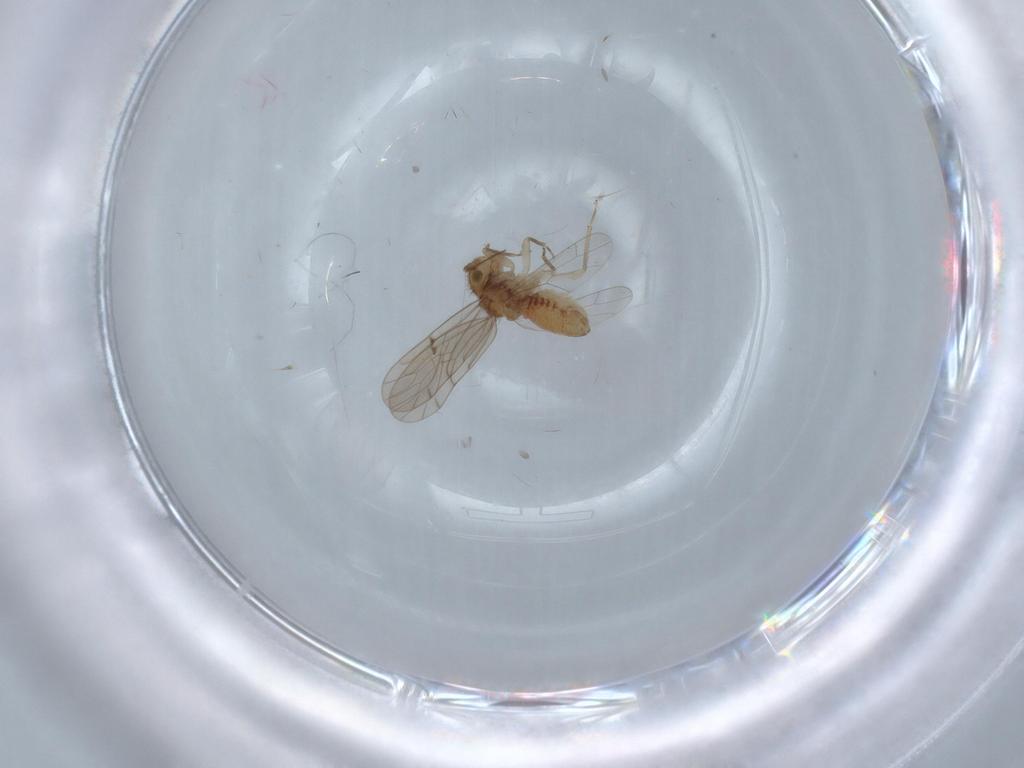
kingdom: Animalia
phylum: Arthropoda
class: Insecta
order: Psocodea
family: Ectopsocidae
